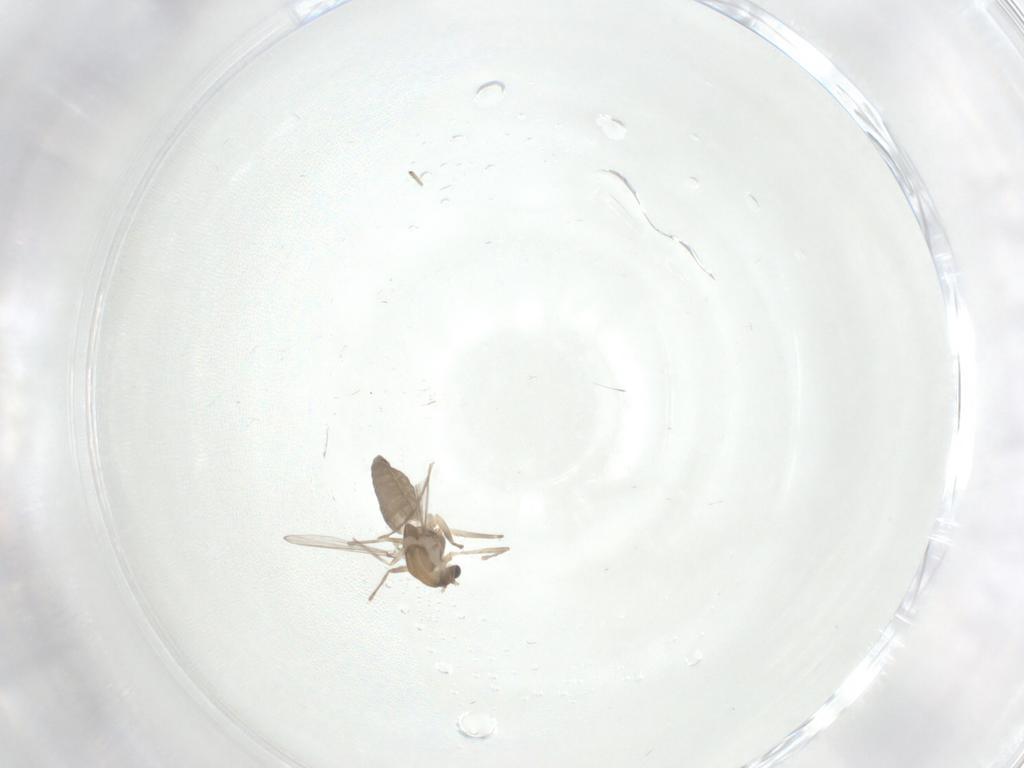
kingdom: Animalia
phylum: Arthropoda
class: Insecta
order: Diptera
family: Chironomidae
